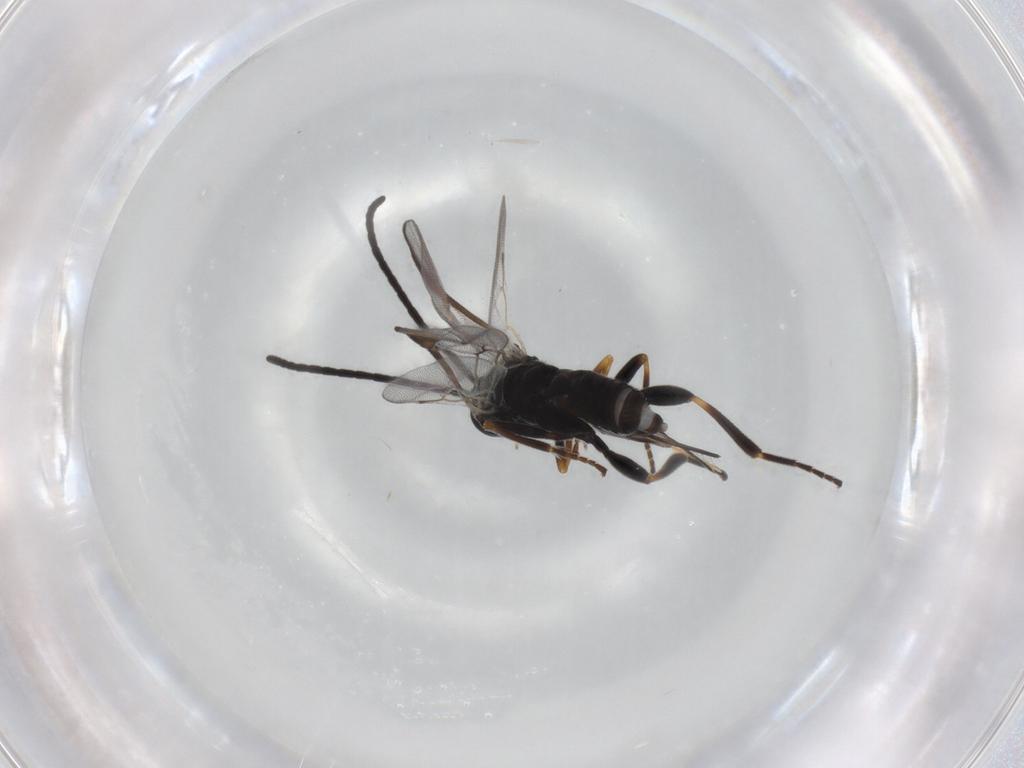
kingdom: Animalia
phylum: Arthropoda
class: Insecta
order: Hymenoptera
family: Braconidae
